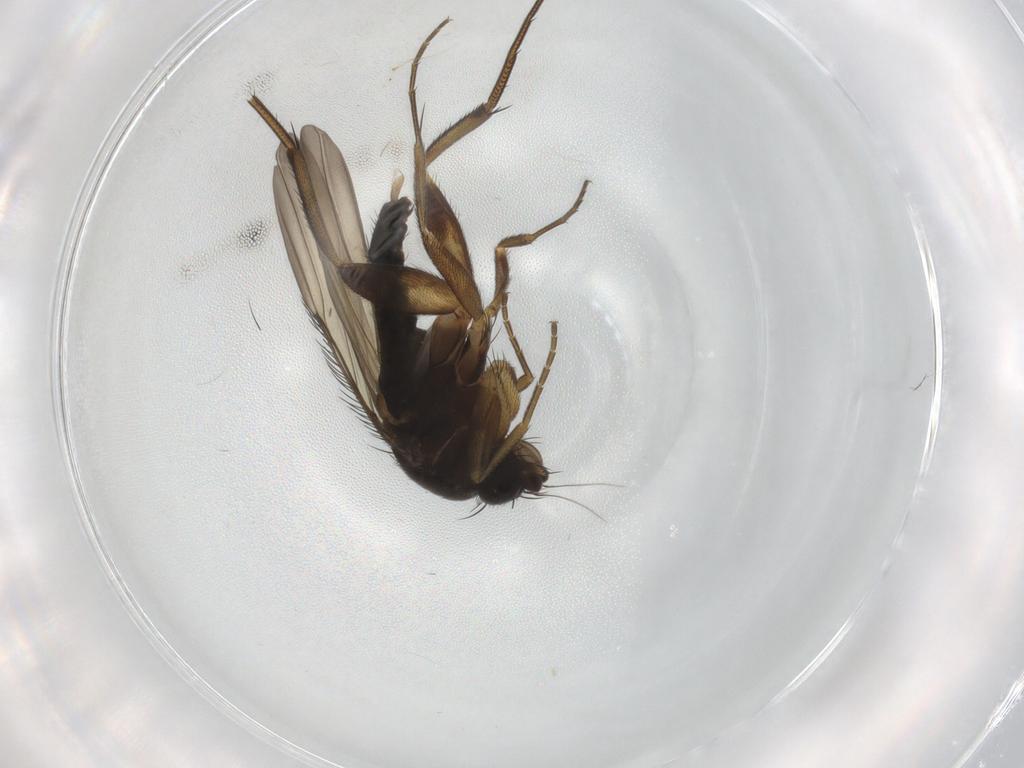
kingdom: Animalia
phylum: Arthropoda
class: Insecta
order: Diptera
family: Phoridae
